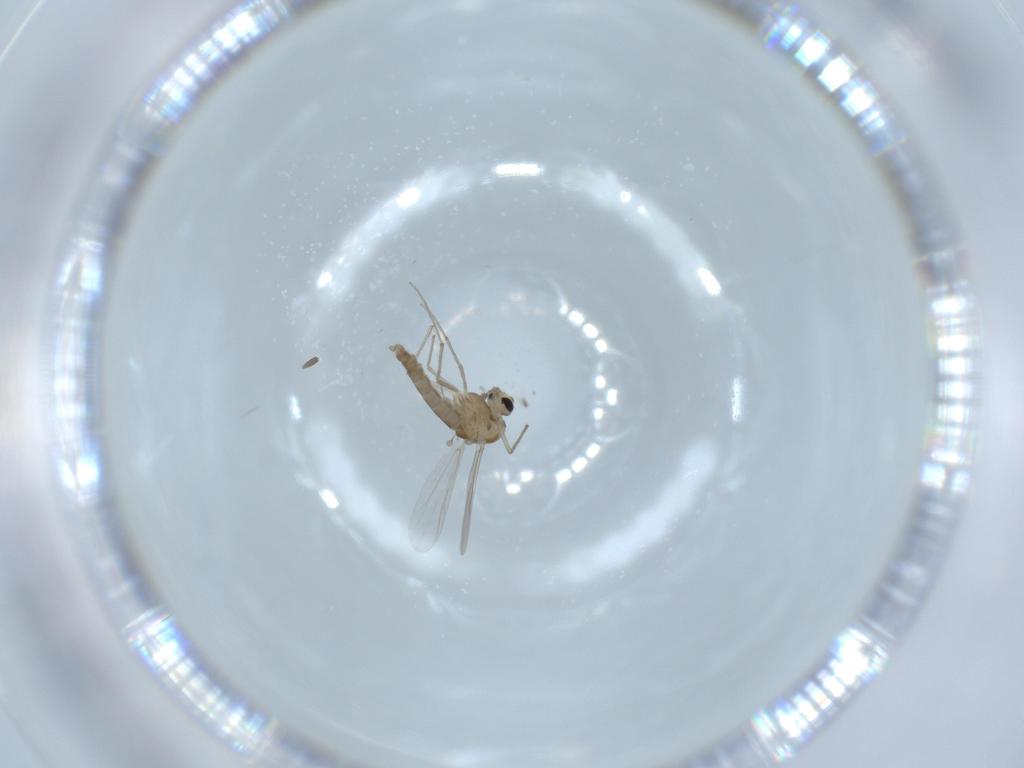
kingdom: Animalia
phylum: Arthropoda
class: Insecta
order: Diptera
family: Chironomidae
